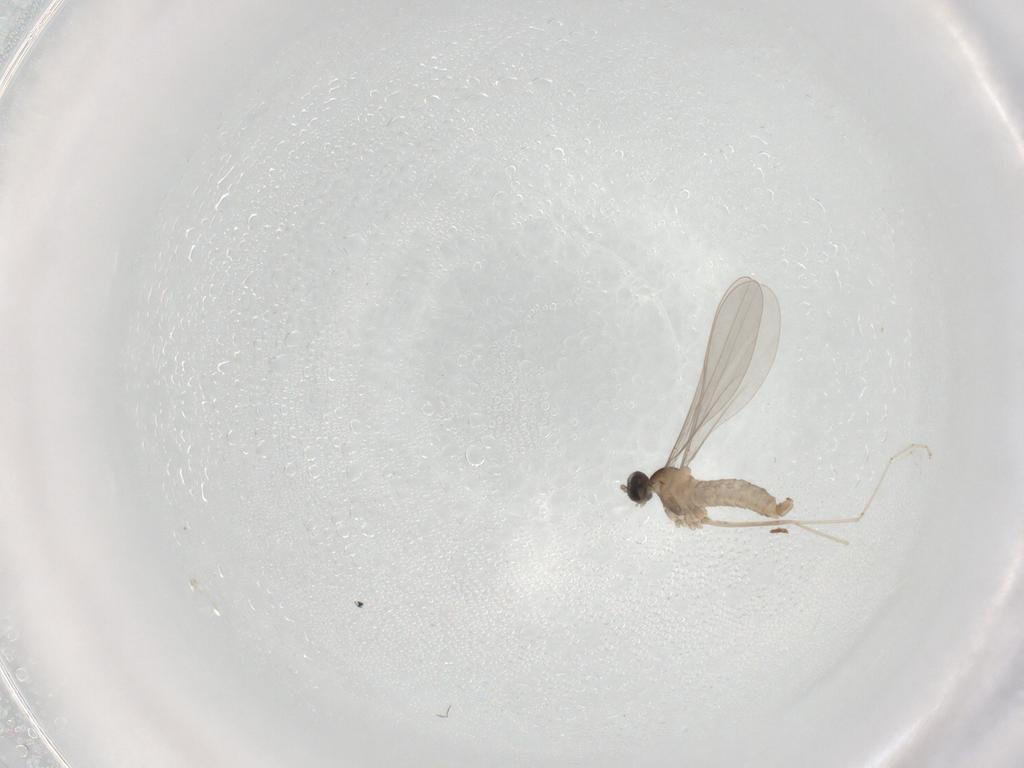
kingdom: Animalia
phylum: Arthropoda
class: Insecta
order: Diptera
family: Cecidomyiidae
